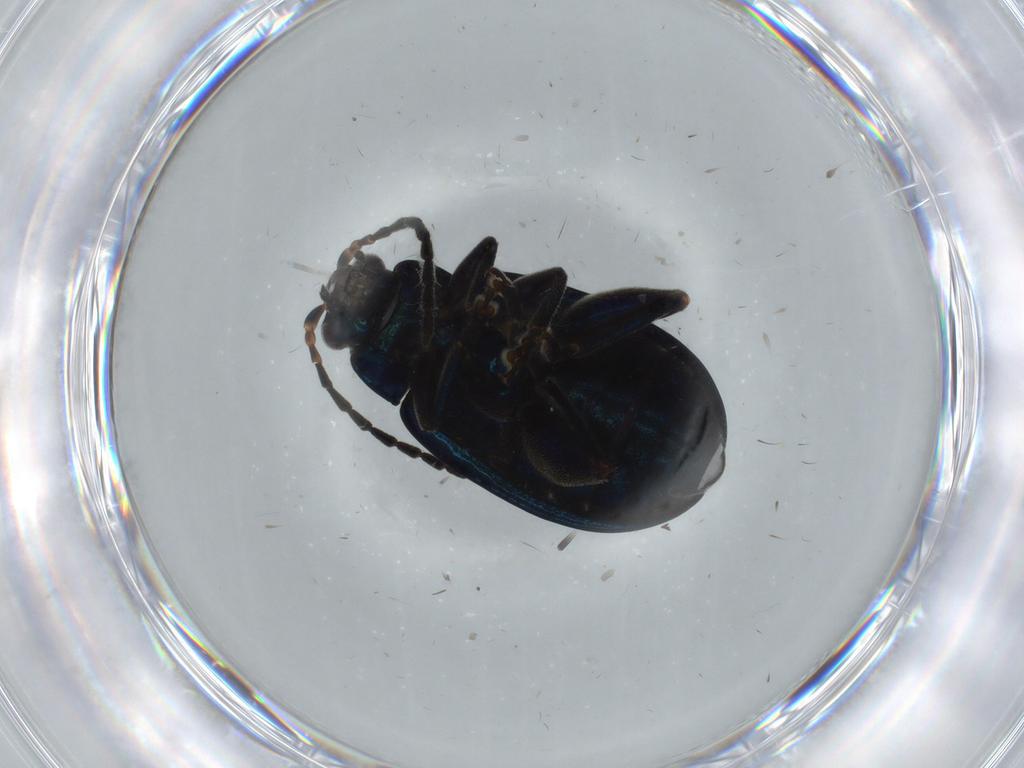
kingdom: Animalia
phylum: Arthropoda
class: Insecta
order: Coleoptera
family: Chrysomelidae
